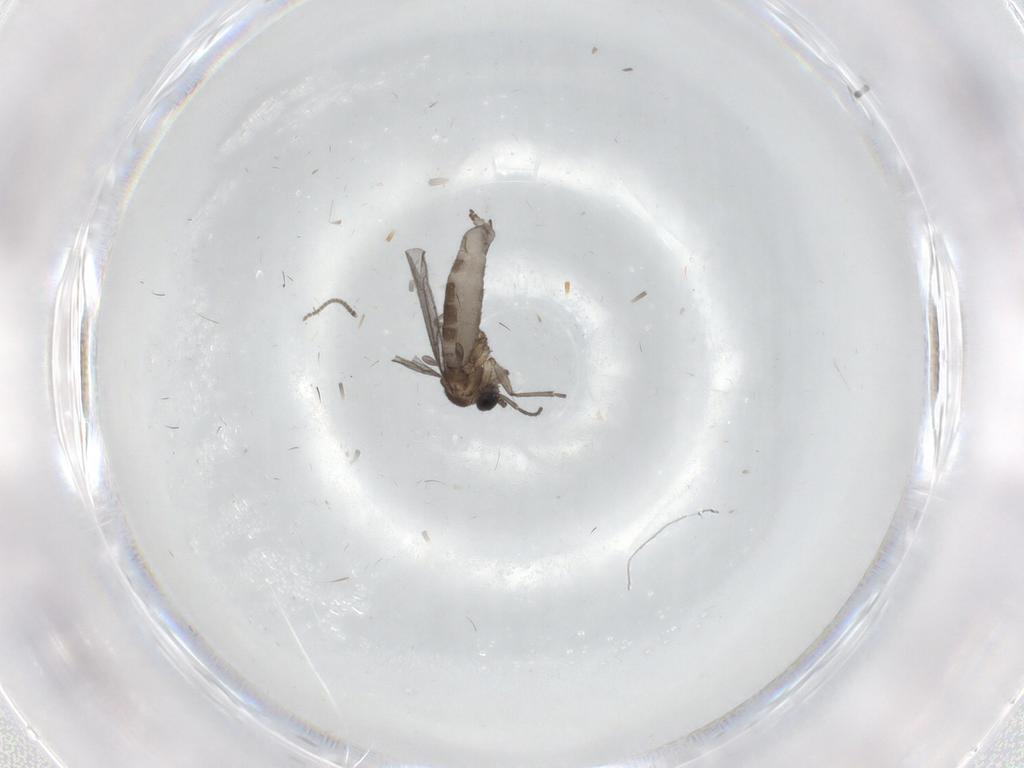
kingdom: Animalia
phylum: Arthropoda
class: Insecta
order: Diptera
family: Sciaridae
